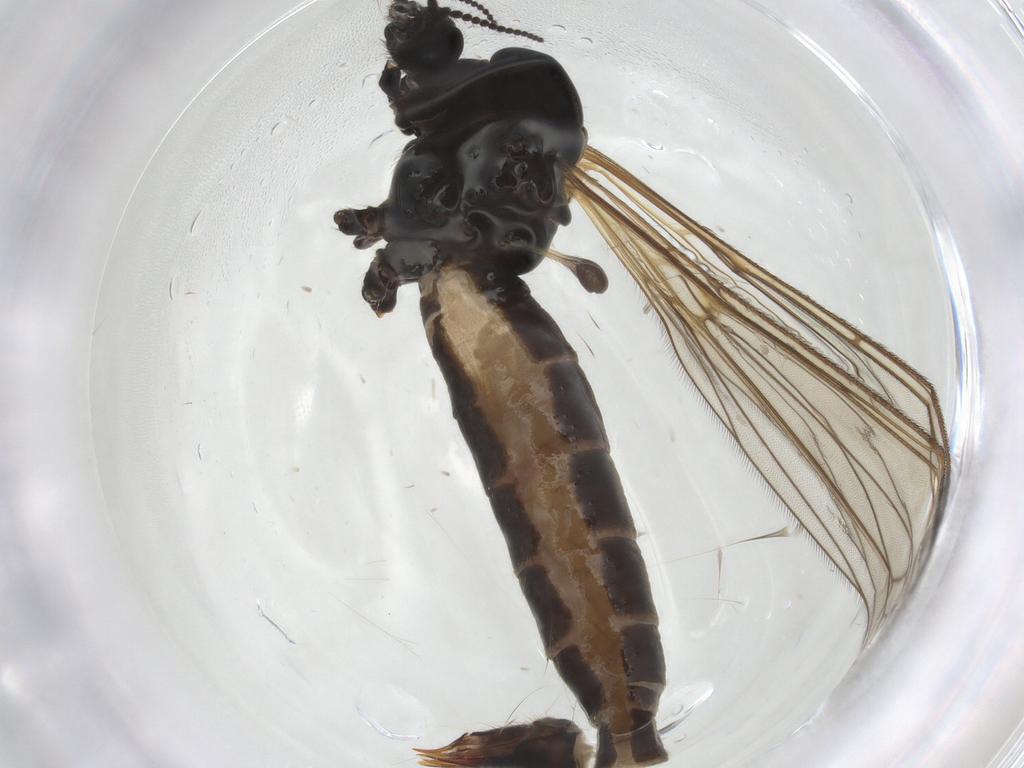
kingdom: Animalia
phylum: Arthropoda
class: Insecta
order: Diptera
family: Limoniidae
